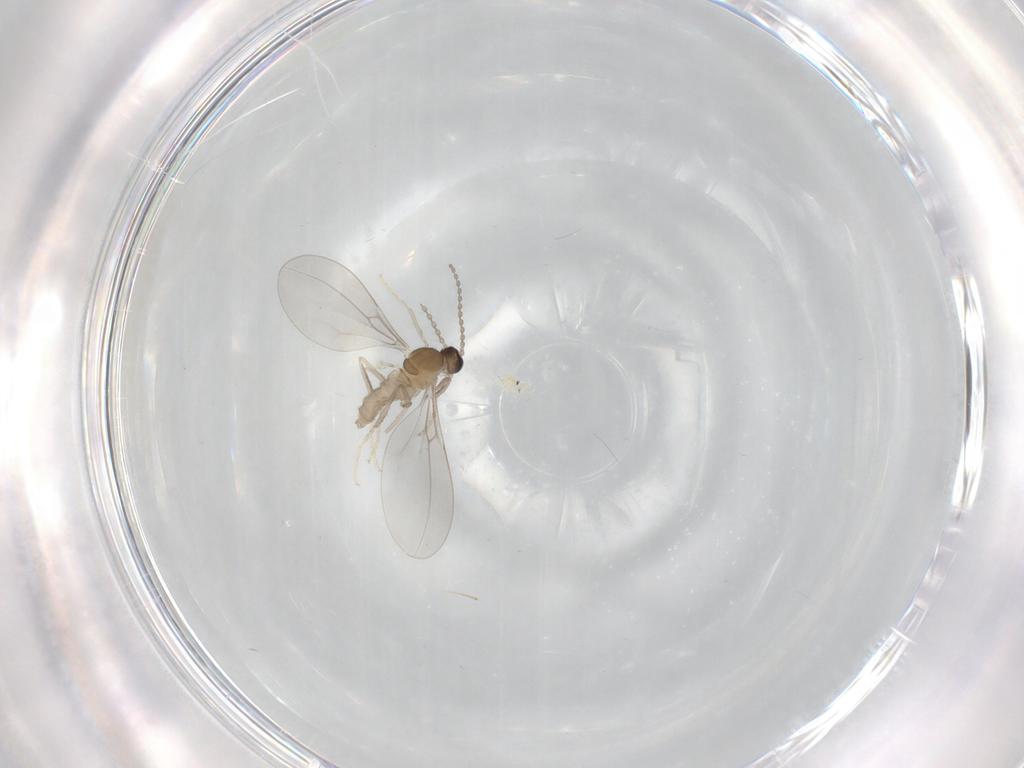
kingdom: Animalia
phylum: Arthropoda
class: Insecta
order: Diptera
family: Cecidomyiidae
